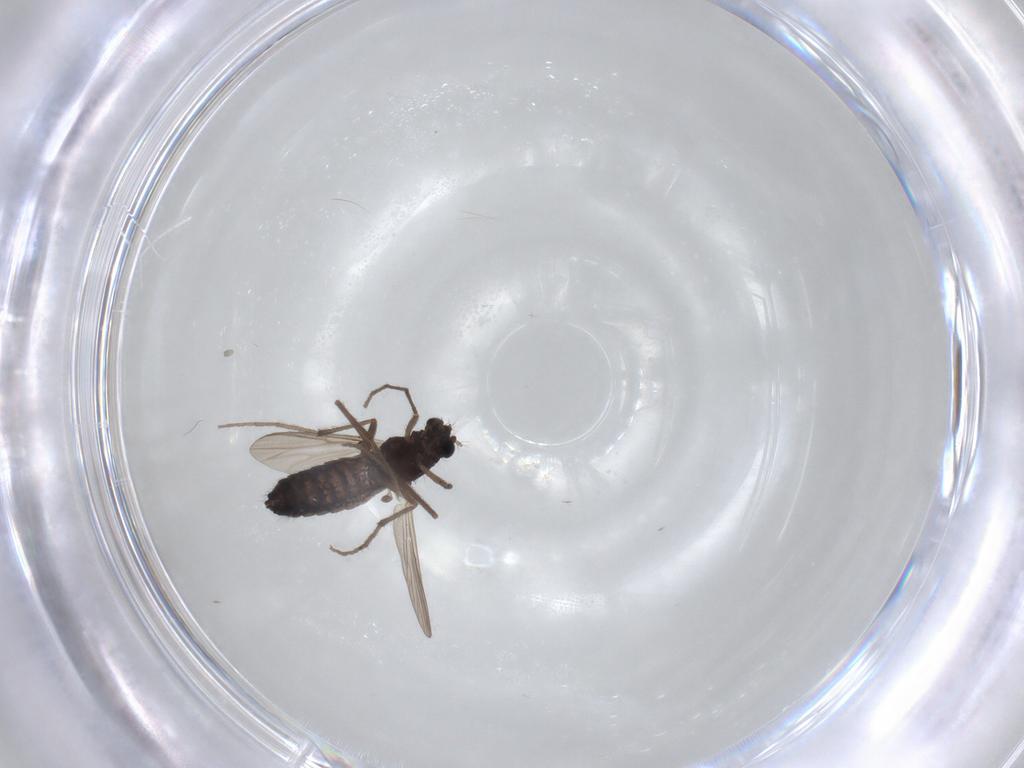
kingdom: Animalia
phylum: Arthropoda
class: Insecta
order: Diptera
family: Chironomidae
